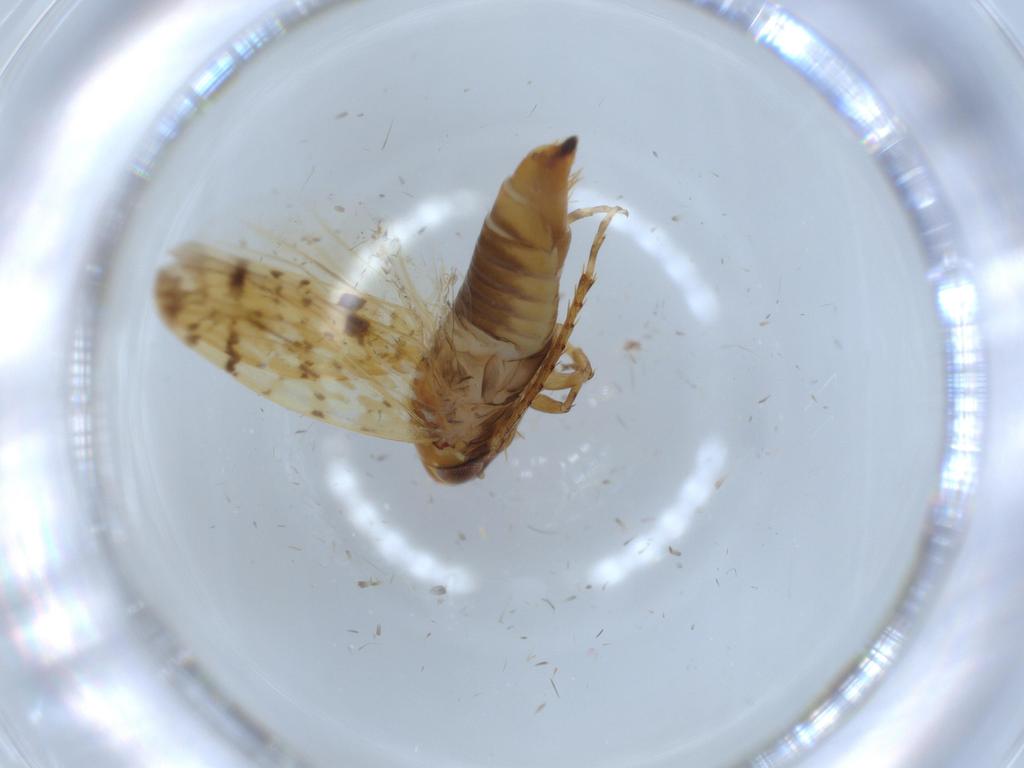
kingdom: Animalia
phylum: Arthropoda
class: Insecta
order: Hemiptera
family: Cicadellidae
